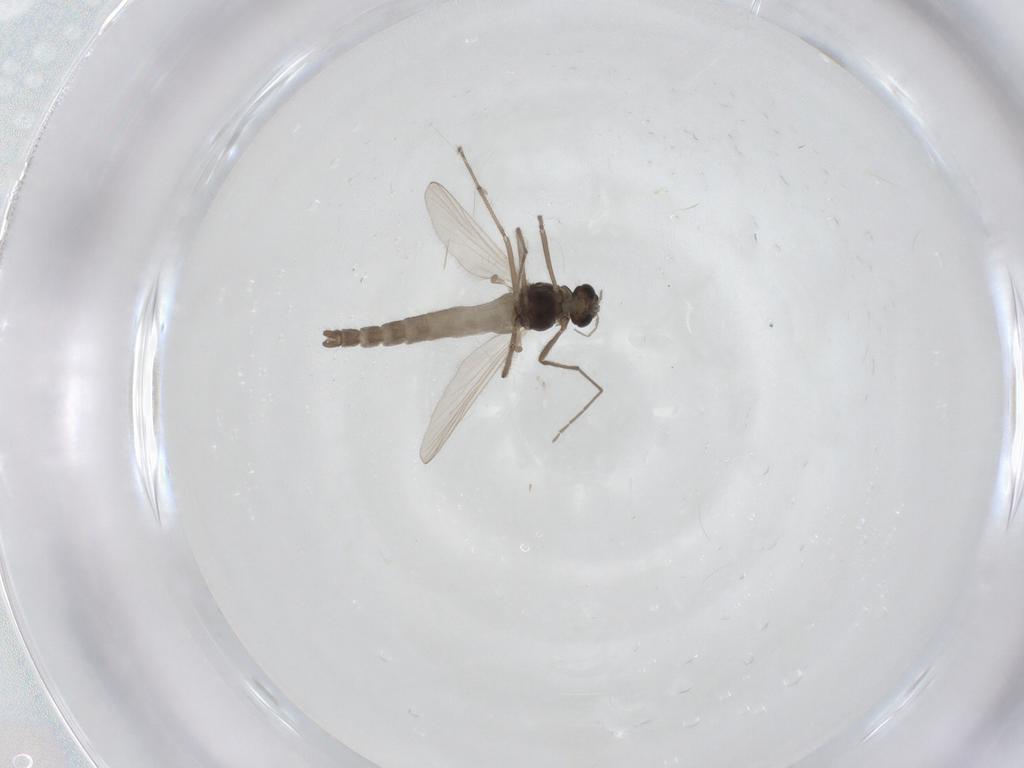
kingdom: Animalia
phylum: Arthropoda
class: Insecta
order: Diptera
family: Chironomidae
